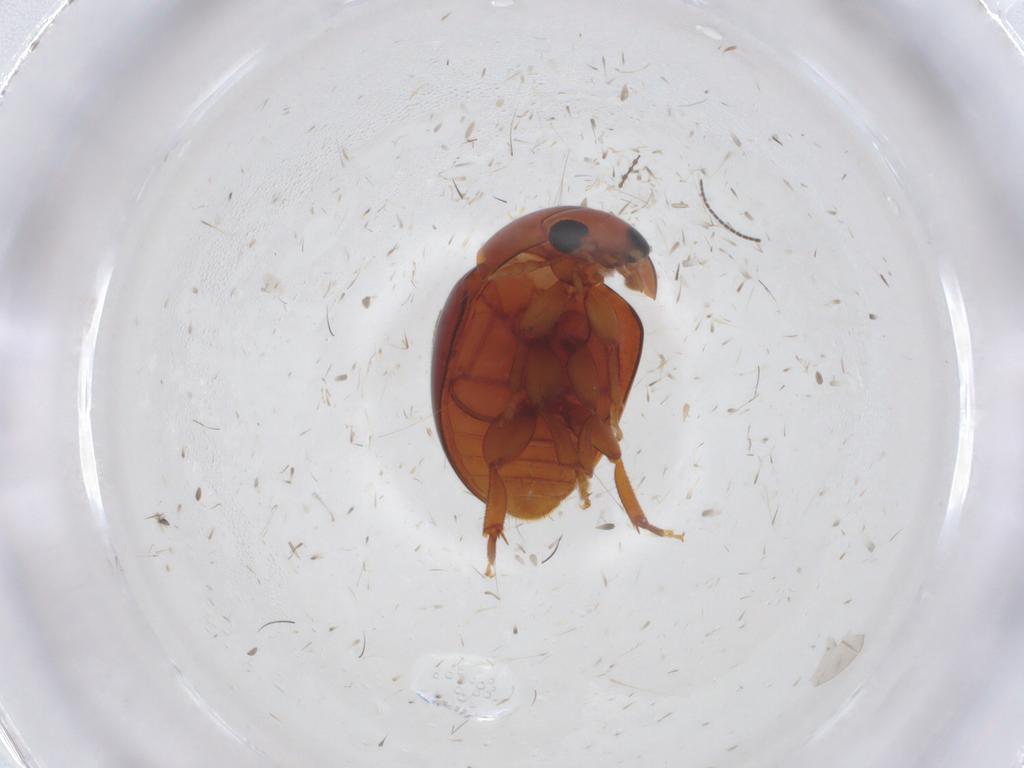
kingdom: Animalia
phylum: Arthropoda
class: Insecta
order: Coleoptera
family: Phalacridae
